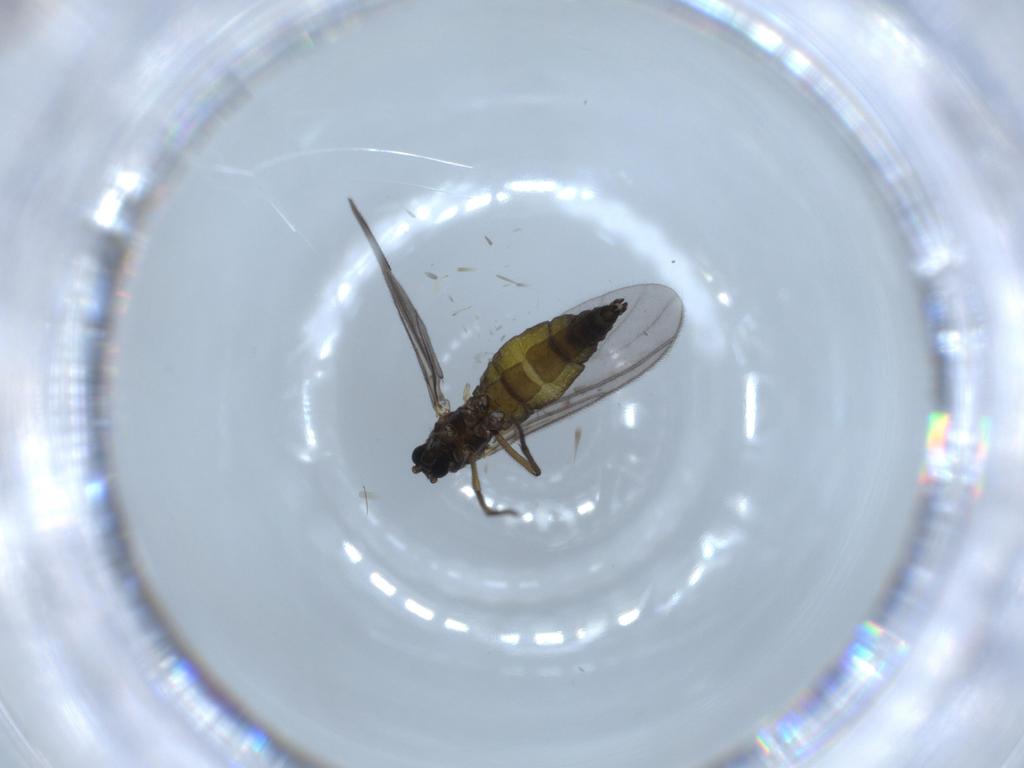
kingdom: Animalia
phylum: Arthropoda
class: Insecta
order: Diptera
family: Sciaridae
